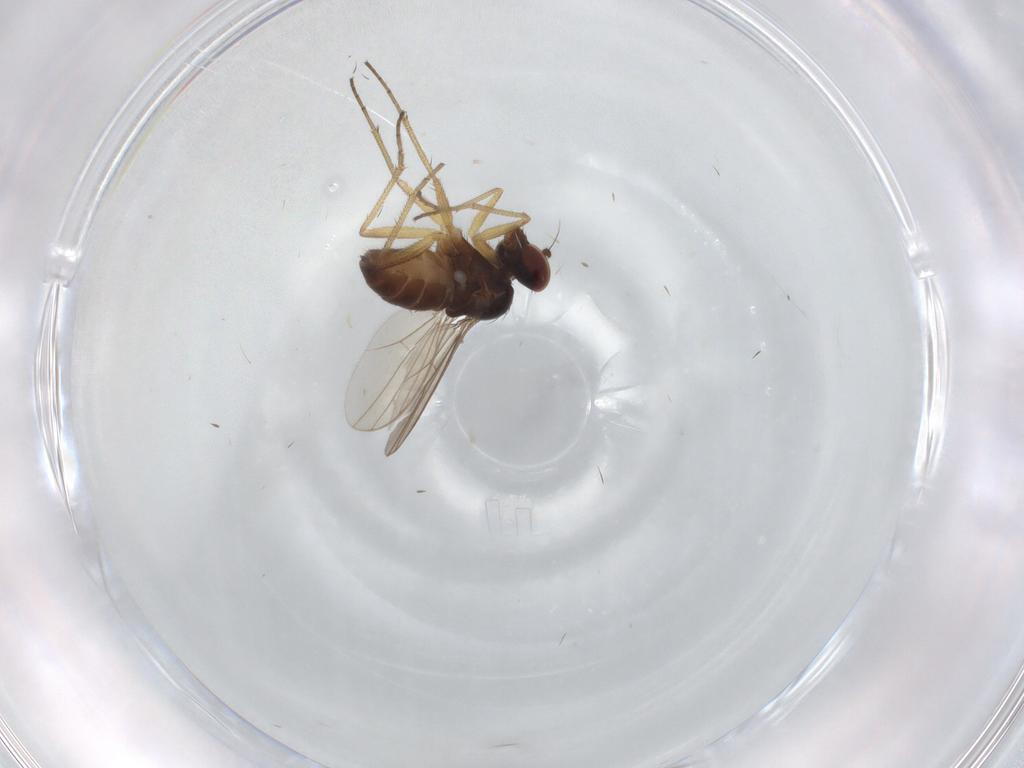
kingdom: Animalia
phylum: Arthropoda
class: Insecta
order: Diptera
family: Dolichopodidae
